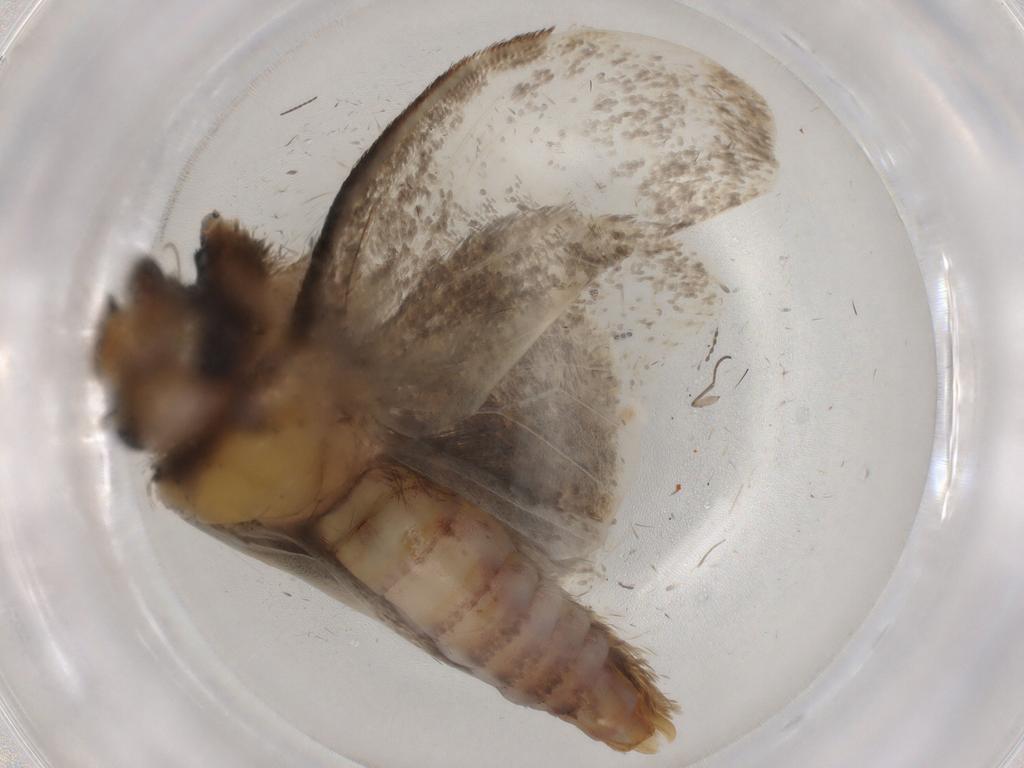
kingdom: Animalia
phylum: Arthropoda
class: Insecta
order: Lepidoptera
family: Tineidae
